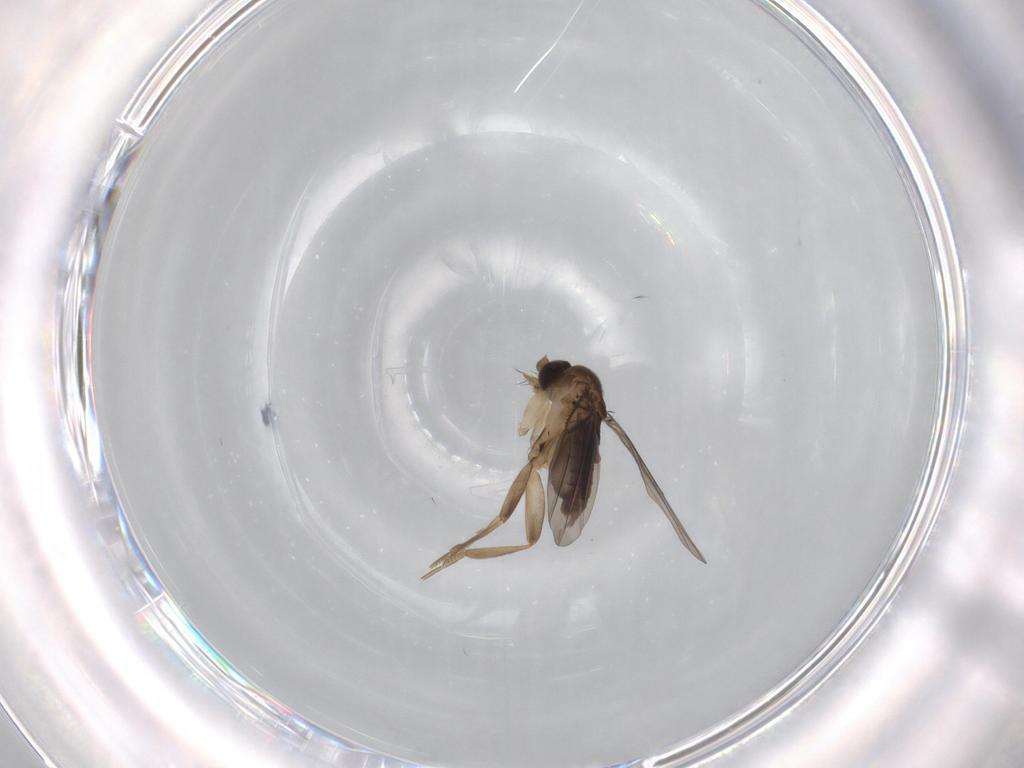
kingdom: Animalia
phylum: Arthropoda
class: Insecta
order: Diptera
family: Phoridae
